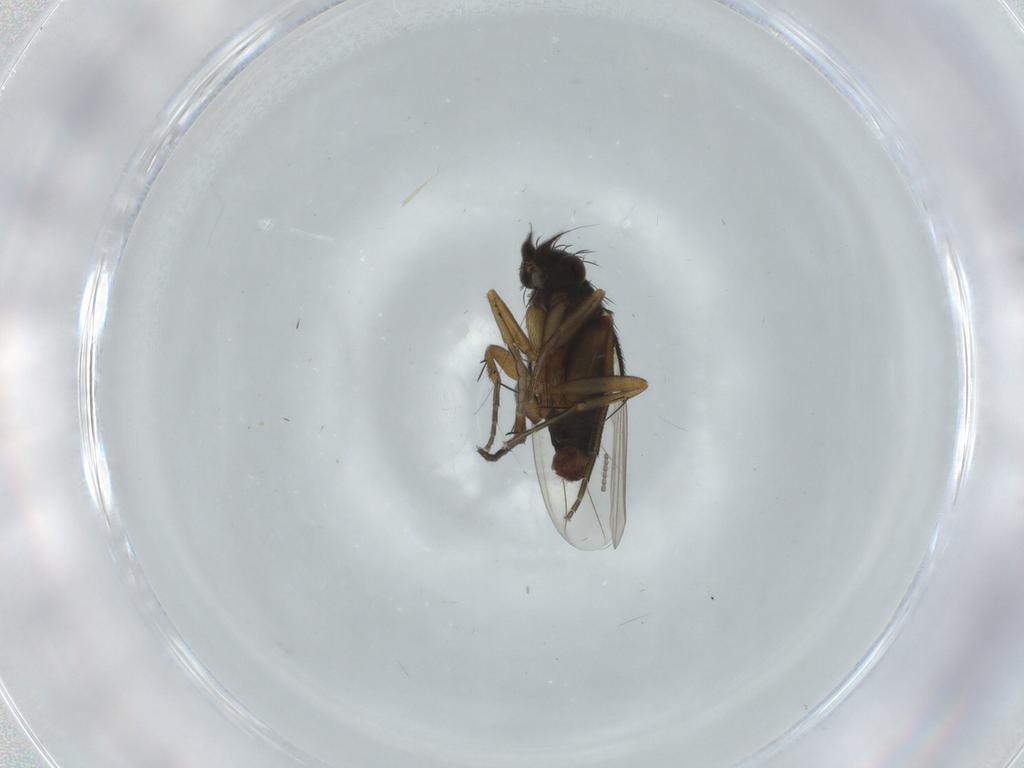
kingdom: Animalia
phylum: Arthropoda
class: Insecta
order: Diptera
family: Phoridae
